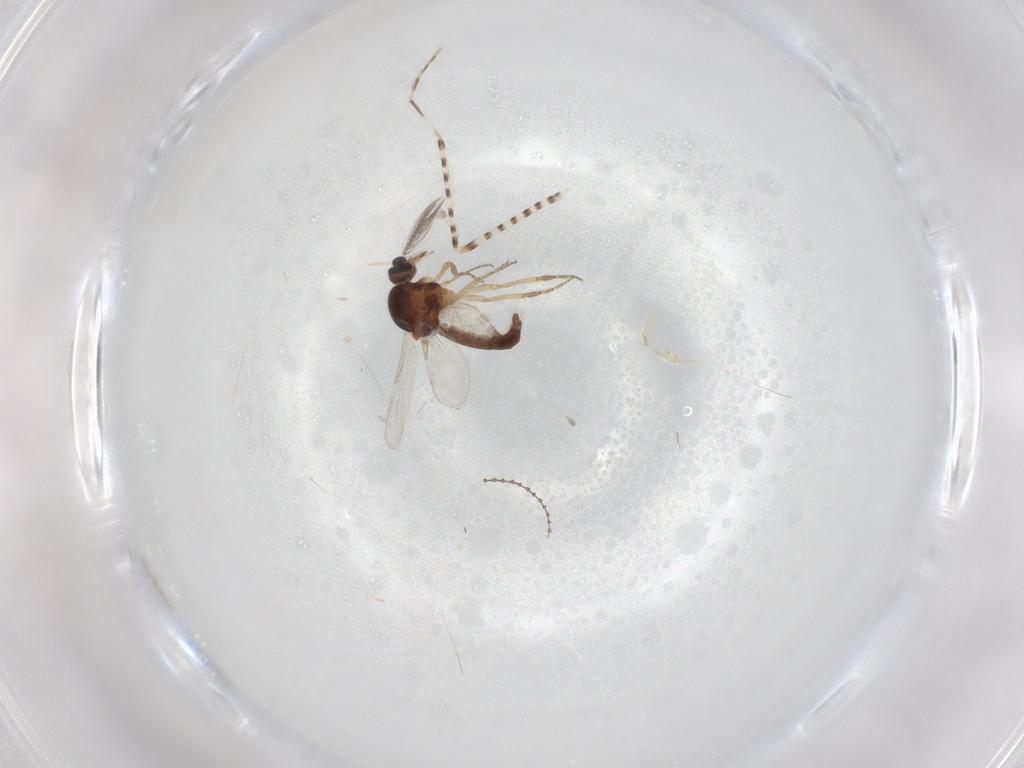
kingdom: Animalia
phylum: Arthropoda
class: Insecta
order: Diptera
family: Corethrellidae
